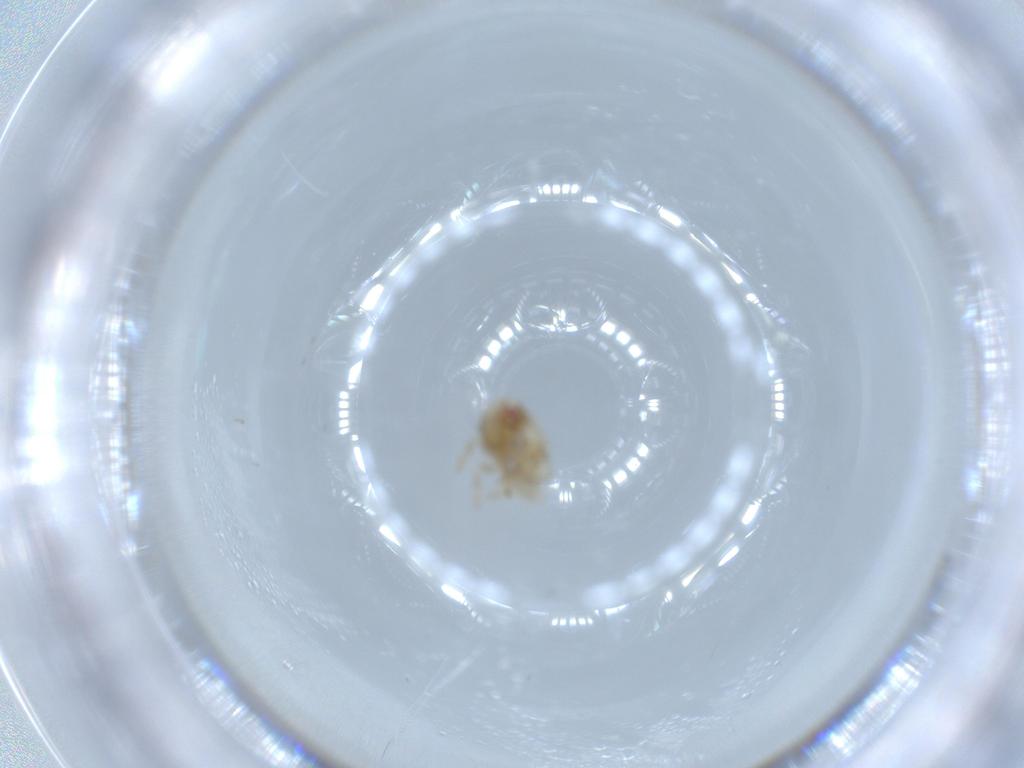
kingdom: Animalia
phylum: Arthropoda
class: Insecta
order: Hemiptera
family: Acanaloniidae
